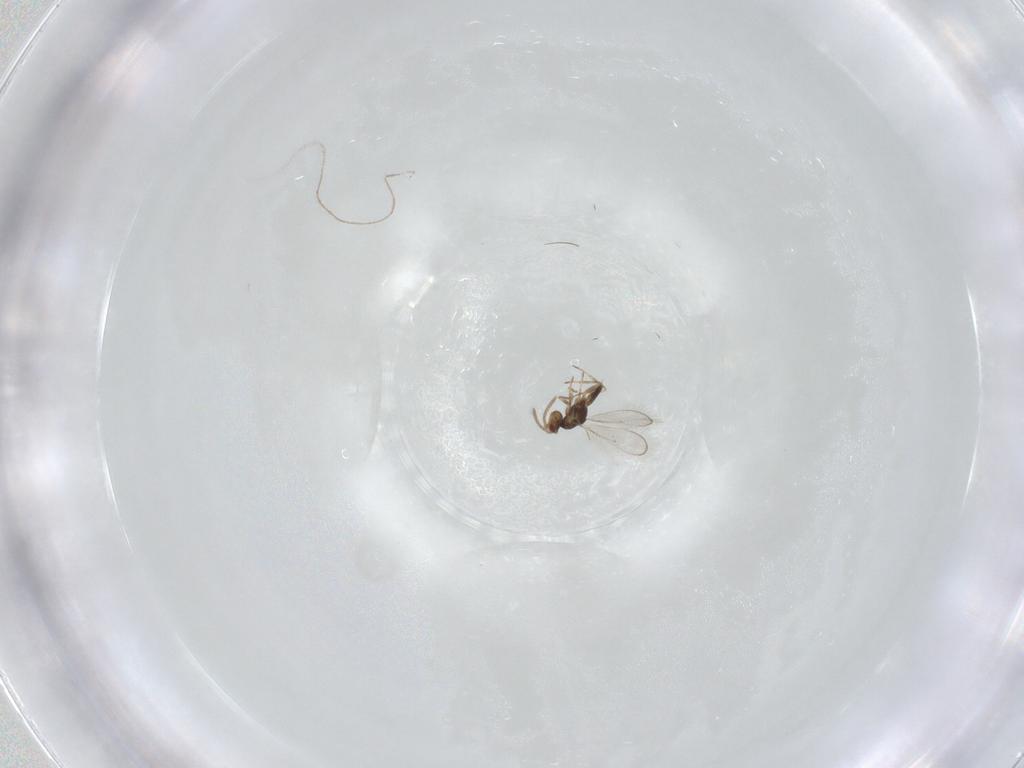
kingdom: Animalia
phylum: Arthropoda
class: Insecta
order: Hymenoptera
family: Eulophidae
